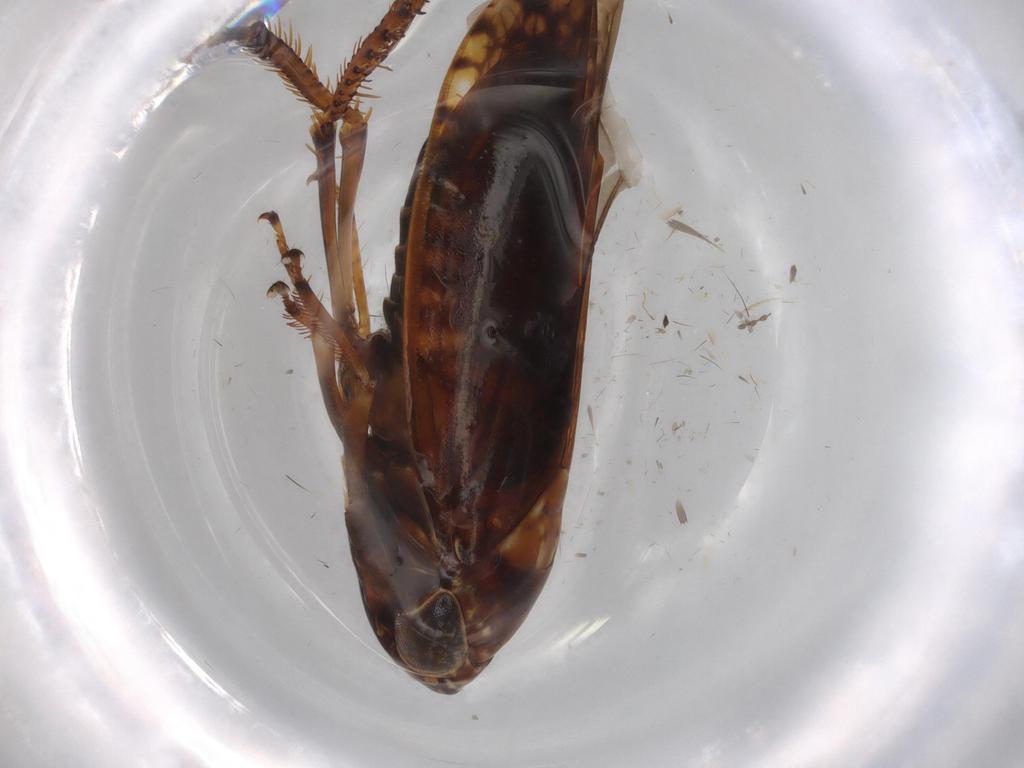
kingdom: Animalia
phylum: Arthropoda
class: Insecta
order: Hemiptera
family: Cicadellidae
